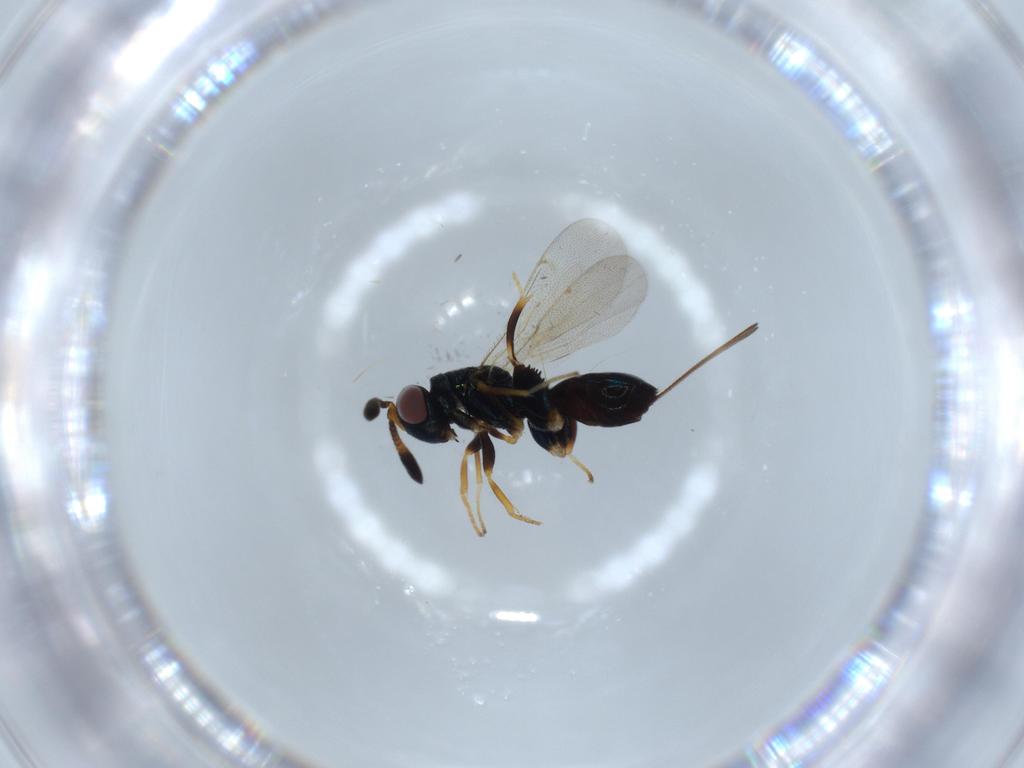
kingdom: Animalia
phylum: Arthropoda
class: Insecta
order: Hymenoptera
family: Torymidae
